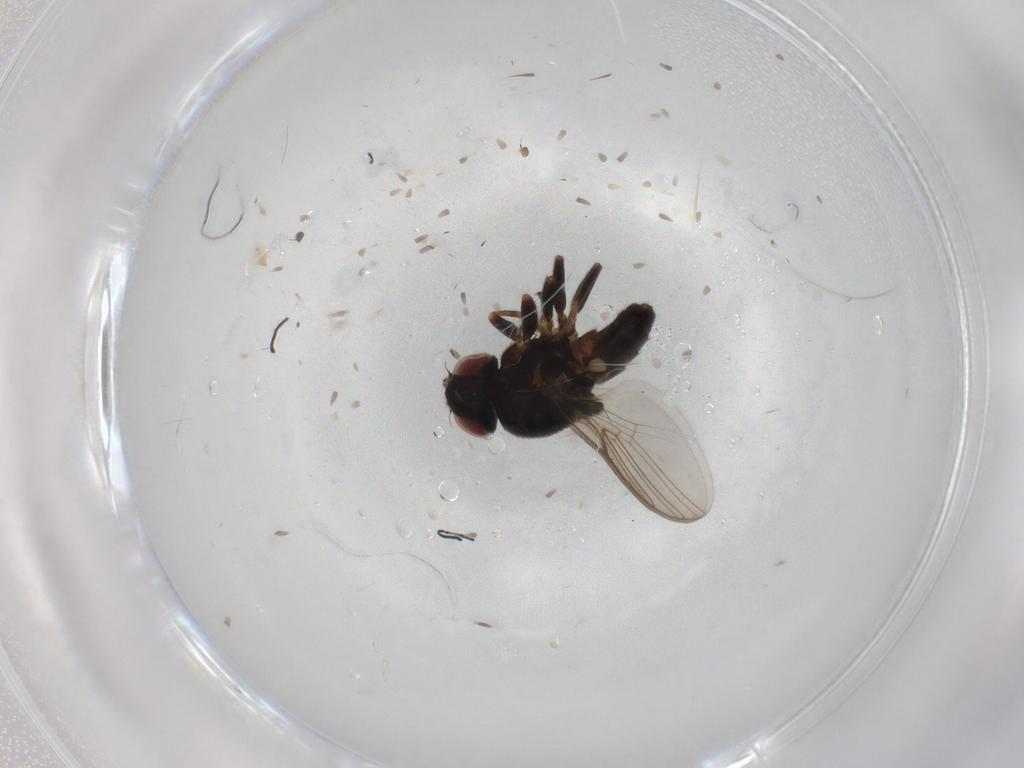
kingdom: Animalia
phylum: Arthropoda
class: Insecta
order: Diptera
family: Chloropidae
